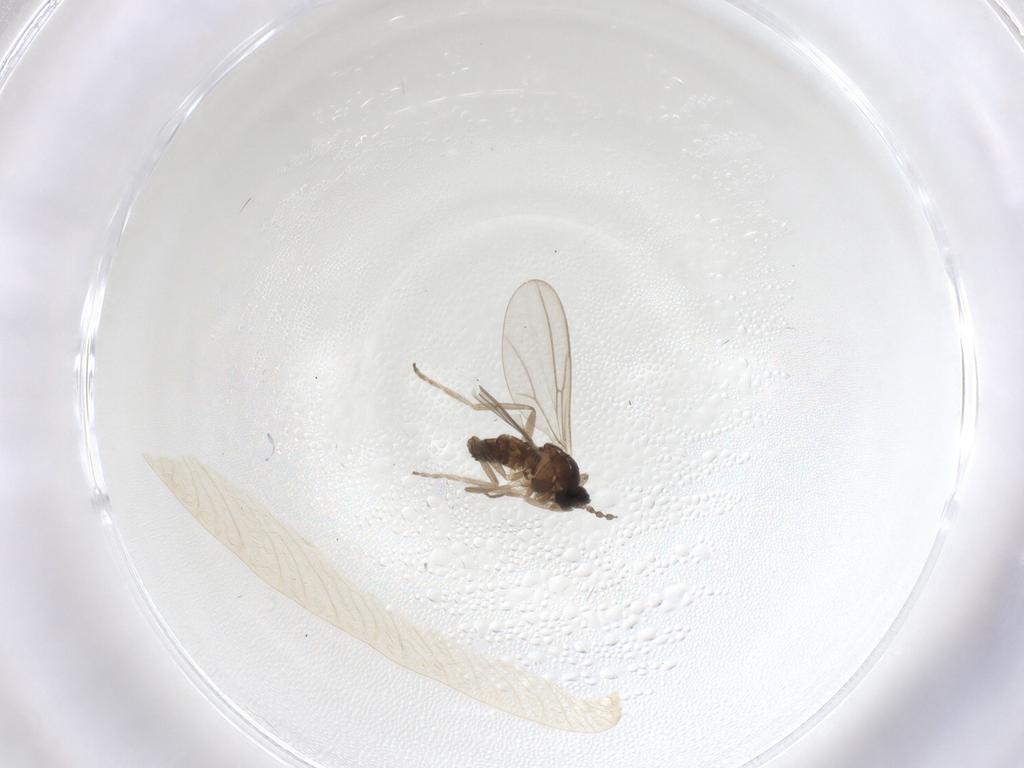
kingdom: Animalia
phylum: Arthropoda
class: Insecta
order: Diptera
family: Cecidomyiidae
